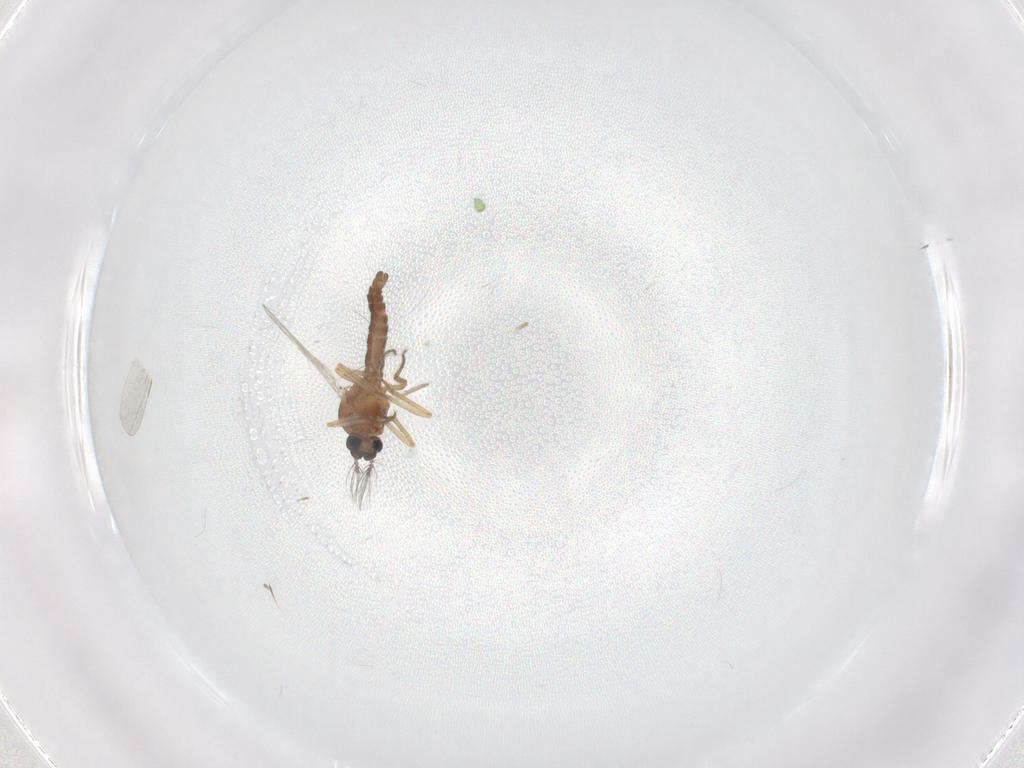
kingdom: Animalia
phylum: Arthropoda
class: Insecta
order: Diptera
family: Ceratopogonidae
